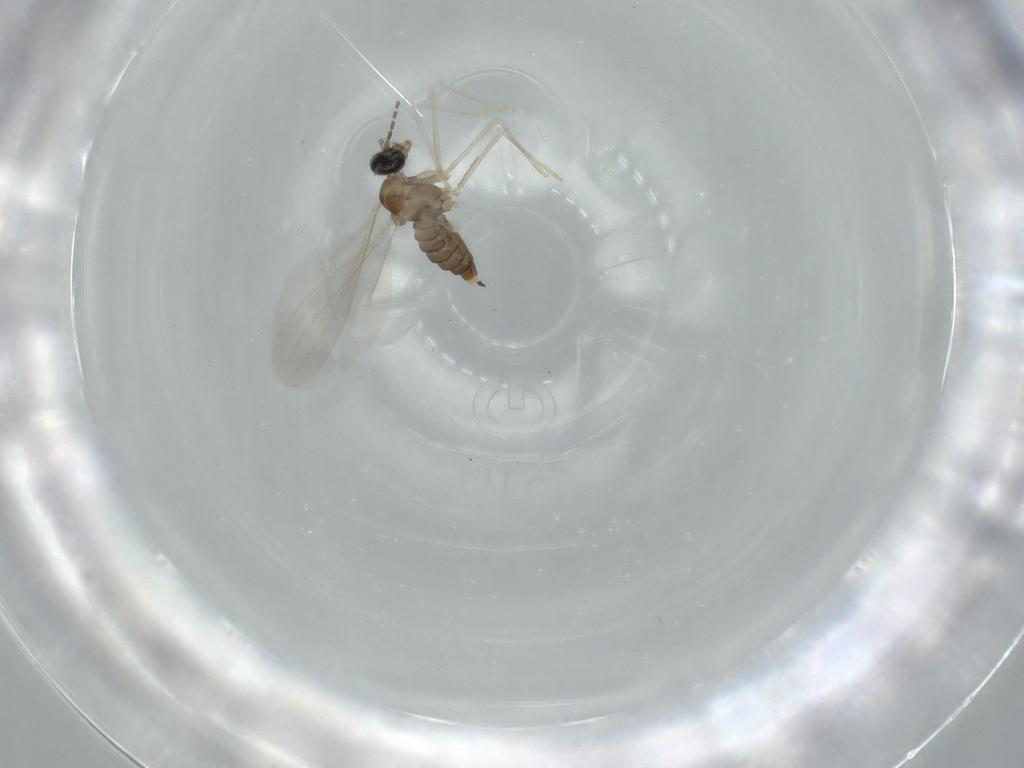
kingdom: Animalia
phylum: Arthropoda
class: Insecta
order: Diptera
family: Cecidomyiidae
